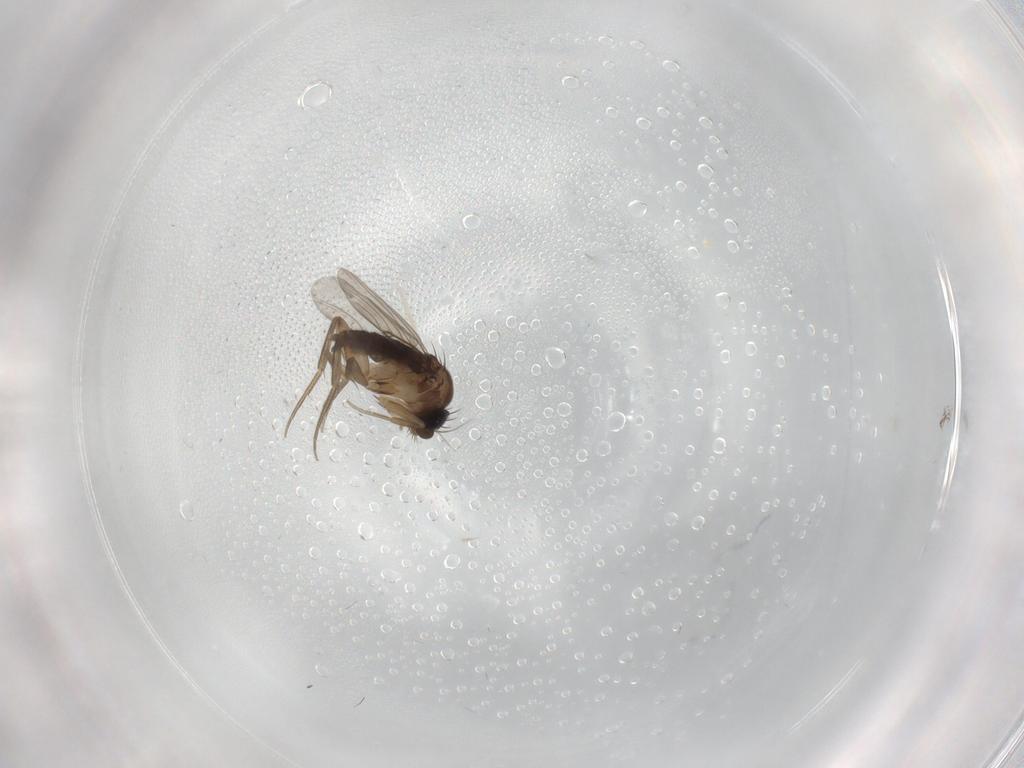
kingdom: Animalia
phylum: Arthropoda
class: Insecta
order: Diptera
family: Phoridae
